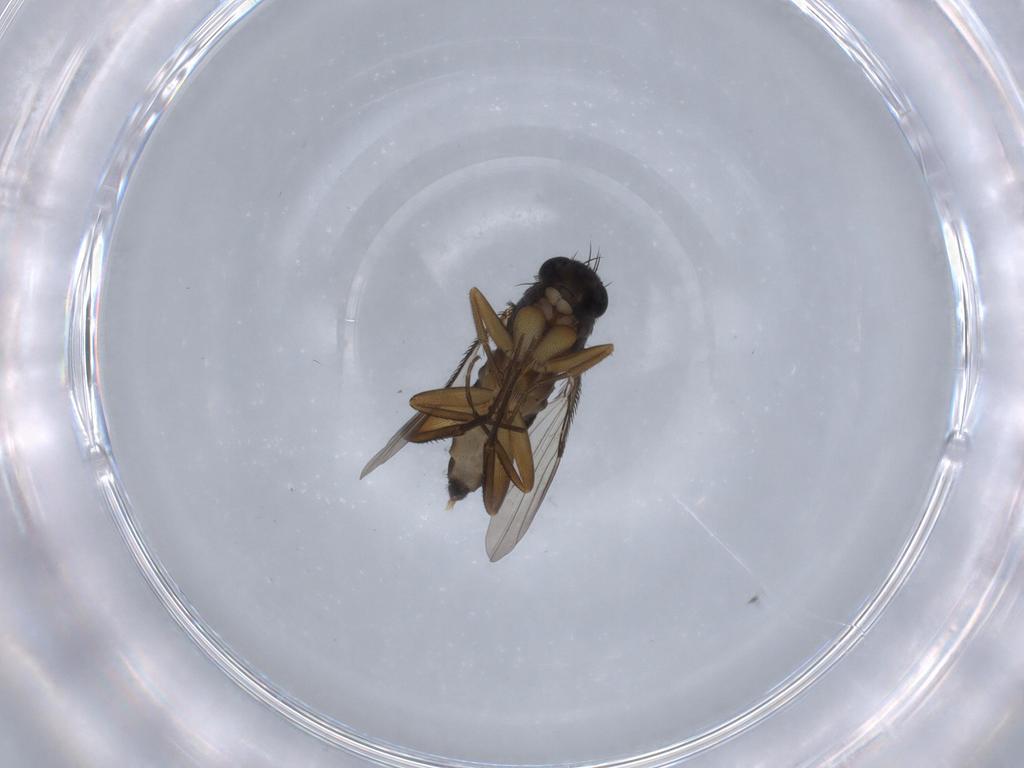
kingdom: Animalia
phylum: Arthropoda
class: Insecta
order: Diptera
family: Phoridae
